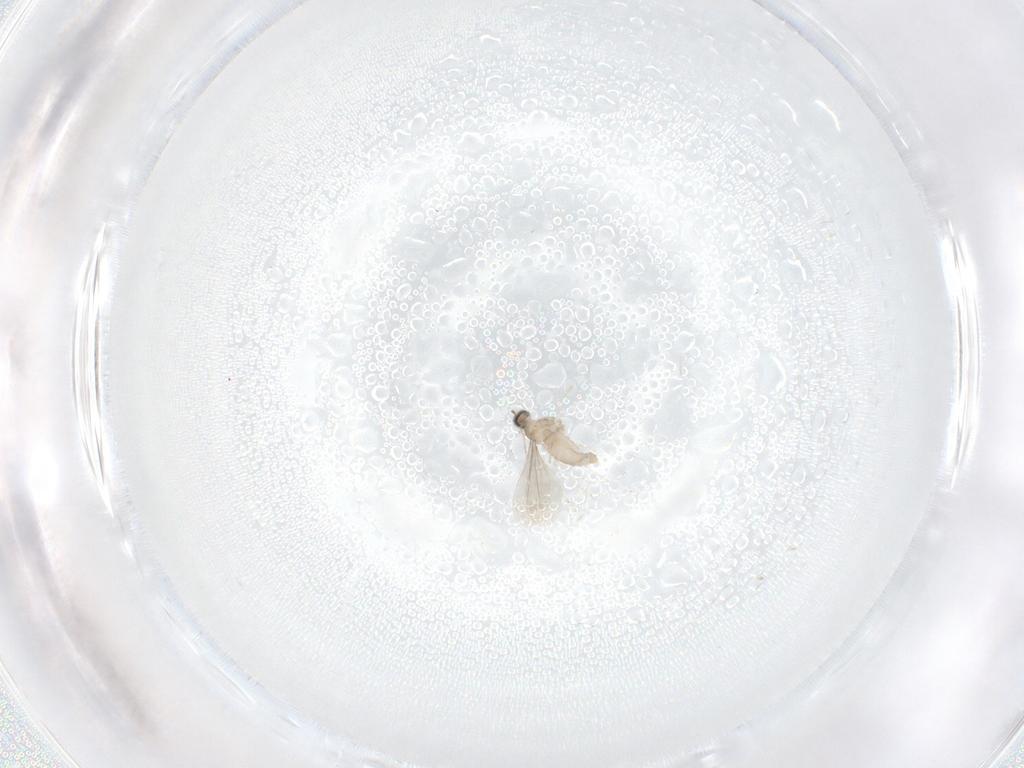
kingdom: Animalia
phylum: Arthropoda
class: Insecta
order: Diptera
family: Cecidomyiidae
